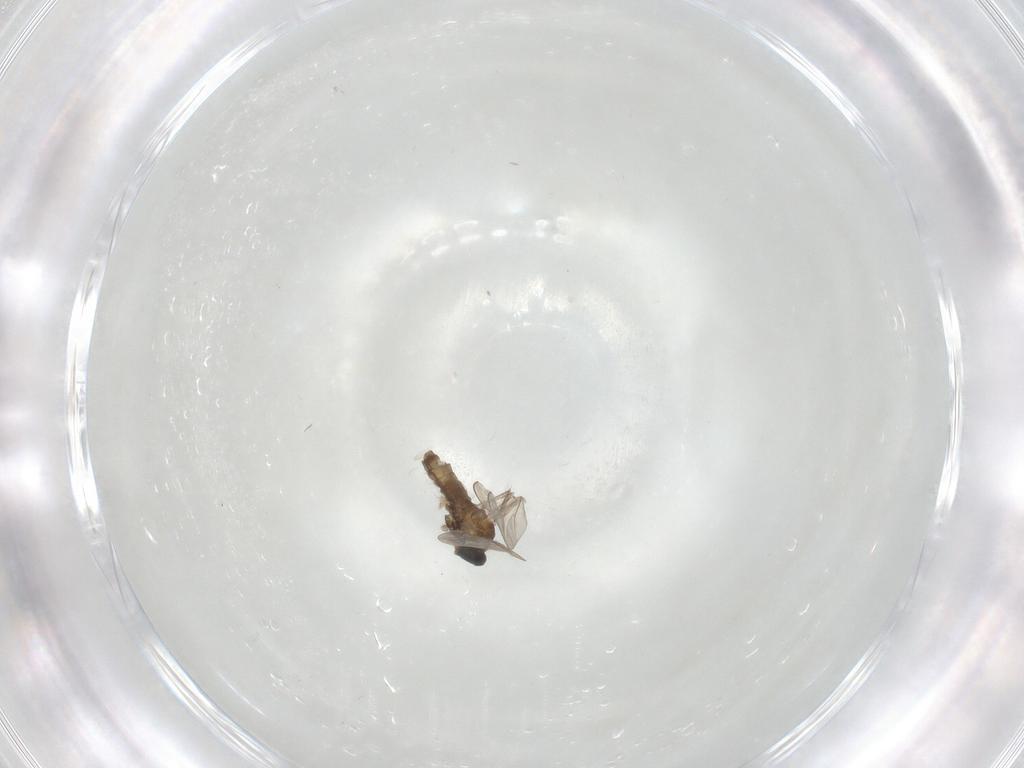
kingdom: Animalia
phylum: Arthropoda
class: Insecta
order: Diptera
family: Cecidomyiidae
